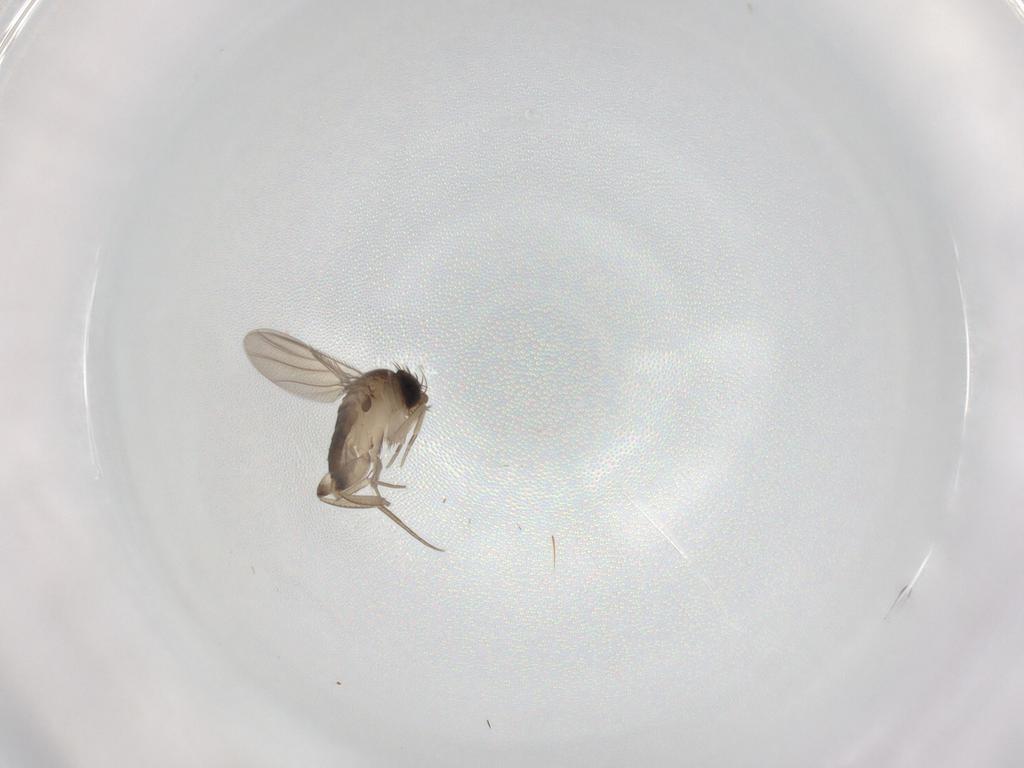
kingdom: Animalia
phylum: Arthropoda
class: Insecta
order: Diptera
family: Phoridae
